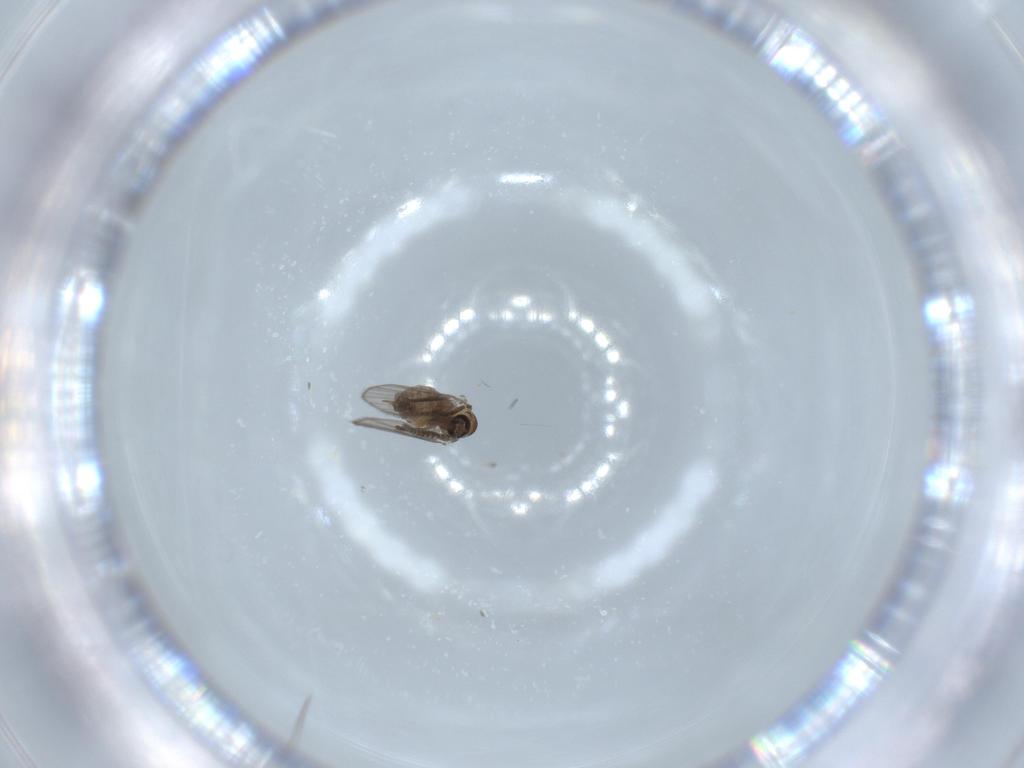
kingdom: Animalia
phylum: Arthropoda
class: Insecta
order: Diptera
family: Psychodidae
